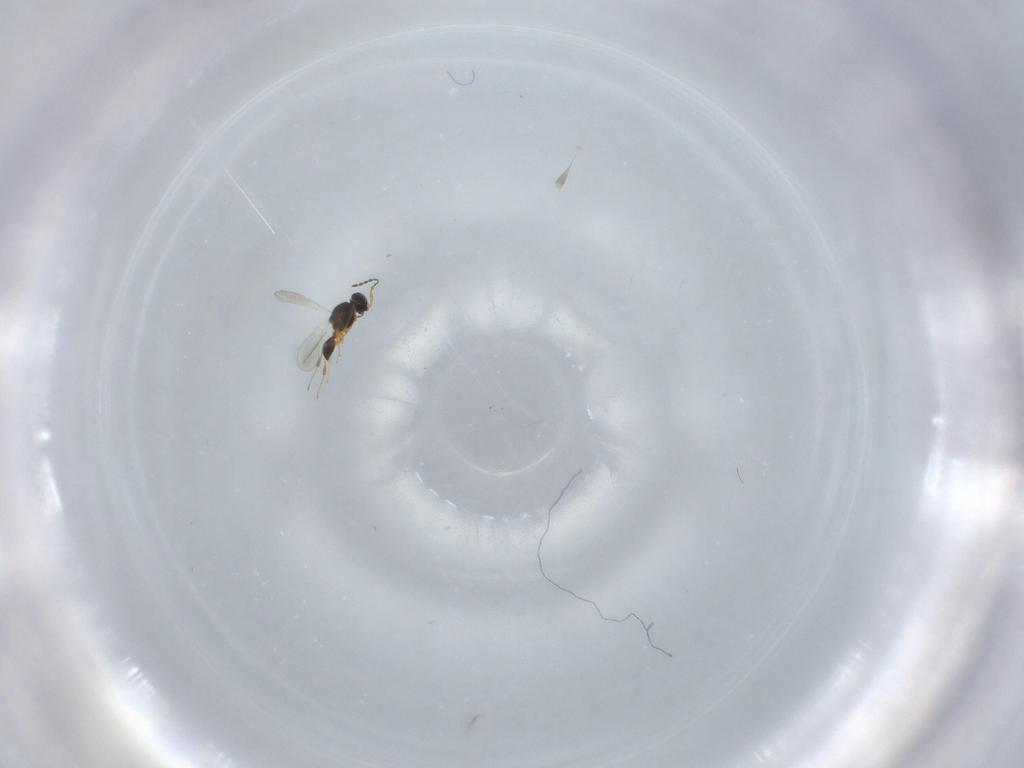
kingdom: Animalia
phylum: Arthropoda
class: Insecta
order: Hymenoptera
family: Platygastridae
